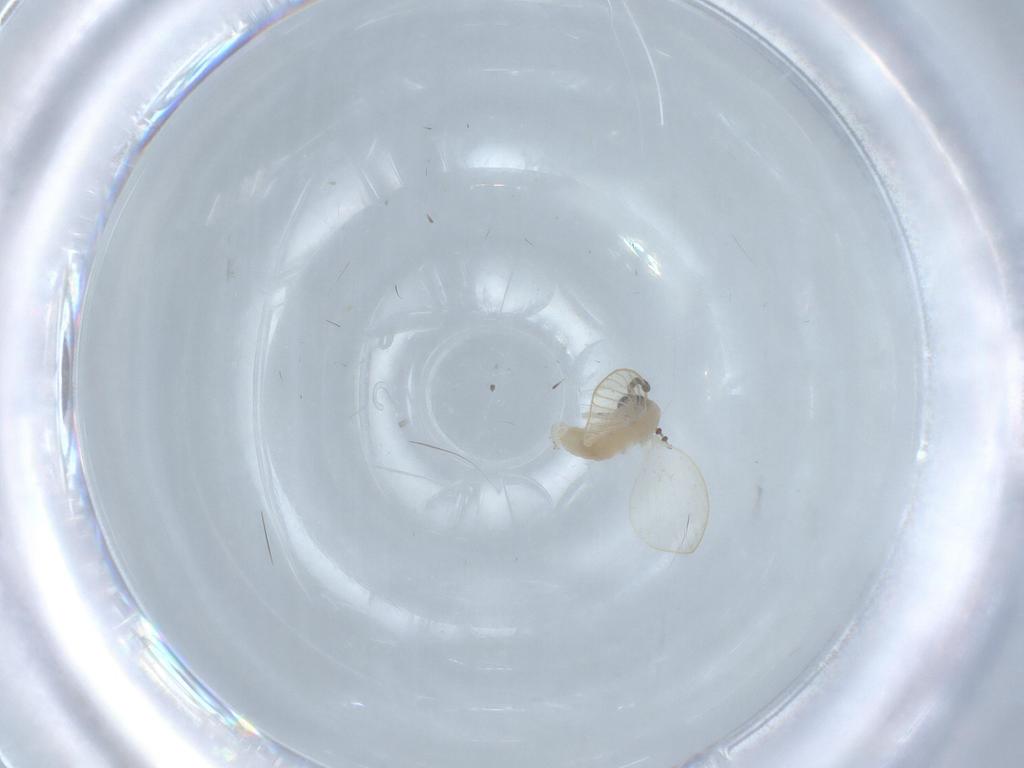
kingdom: Animalia
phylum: Arthropoda
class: Insecta
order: Diptera
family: Psychodidae
